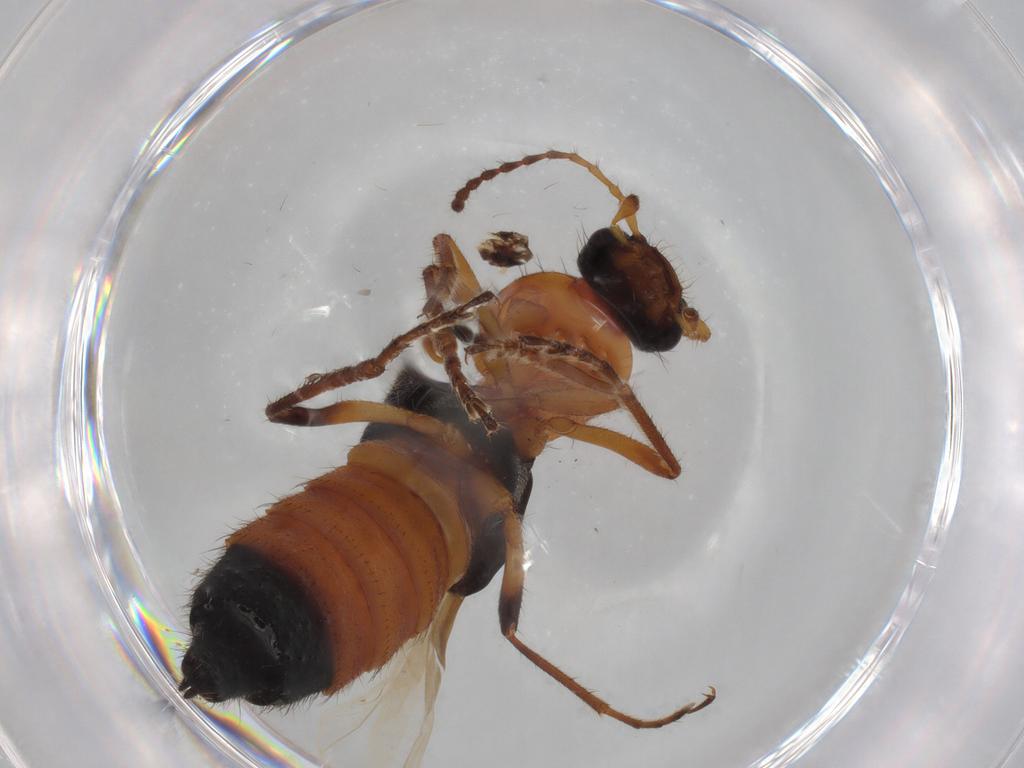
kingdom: Animalia
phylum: Arthropoda
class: Insecta
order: Coleoptera
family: Staphylinidae
